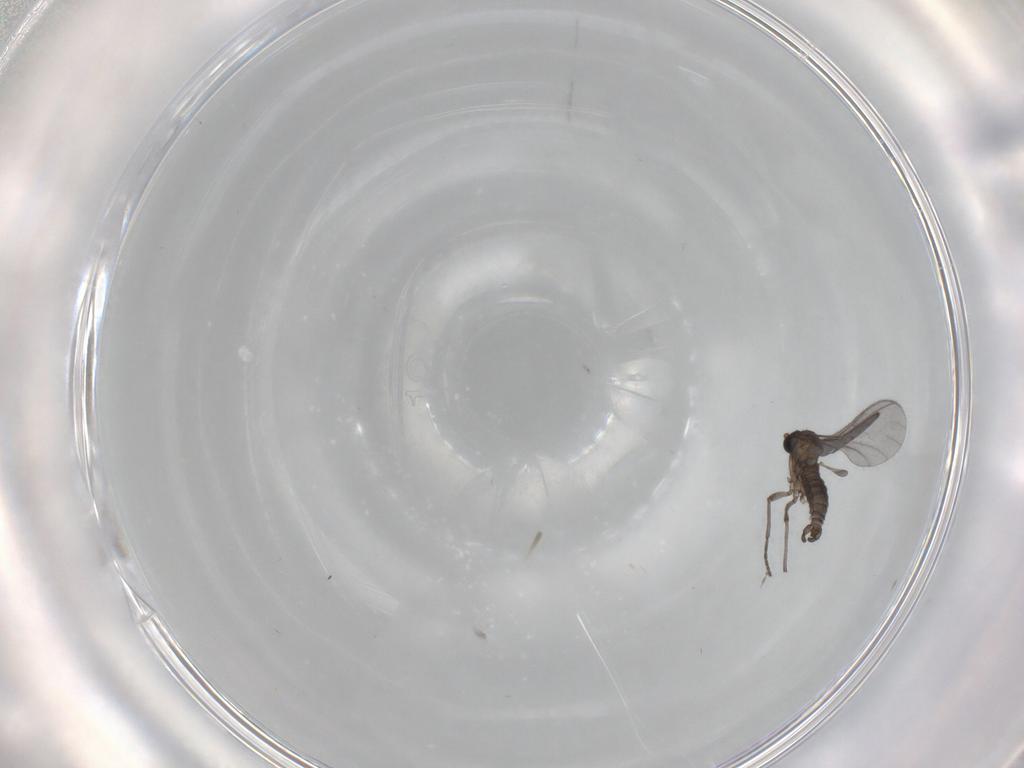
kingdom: Animalia
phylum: Arthropoda
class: Insecta
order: Diptera
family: Cecidomyiidae
